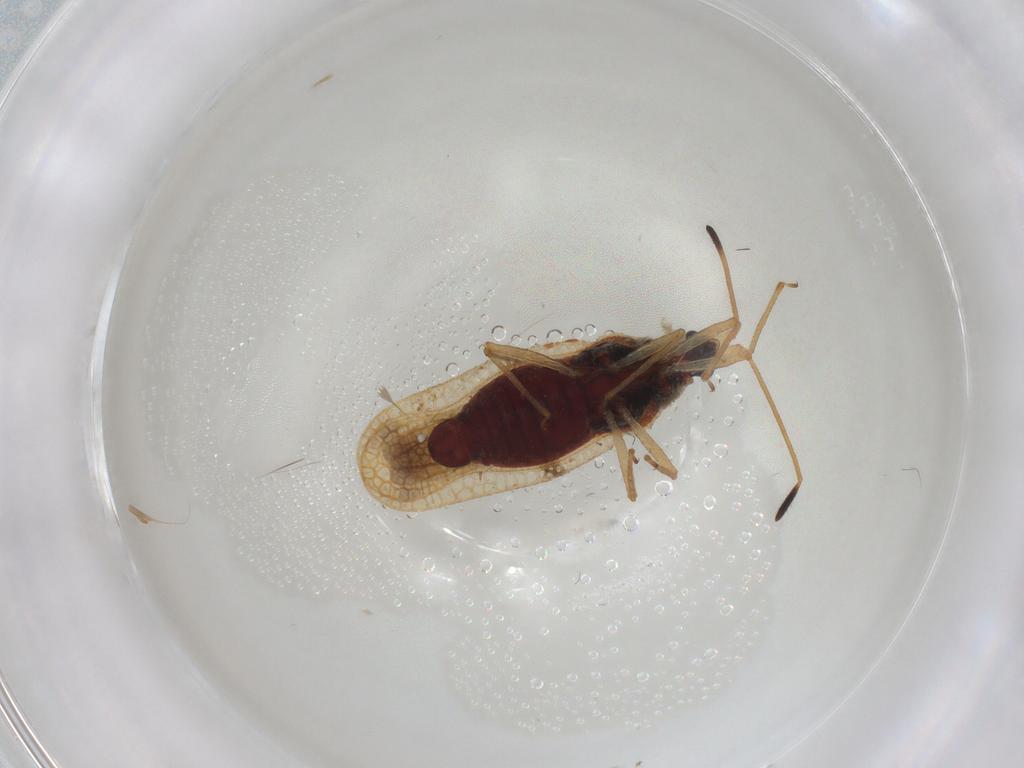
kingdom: Animalia
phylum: Arthropoda
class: Insecta
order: Hemiptera
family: Tingidae
